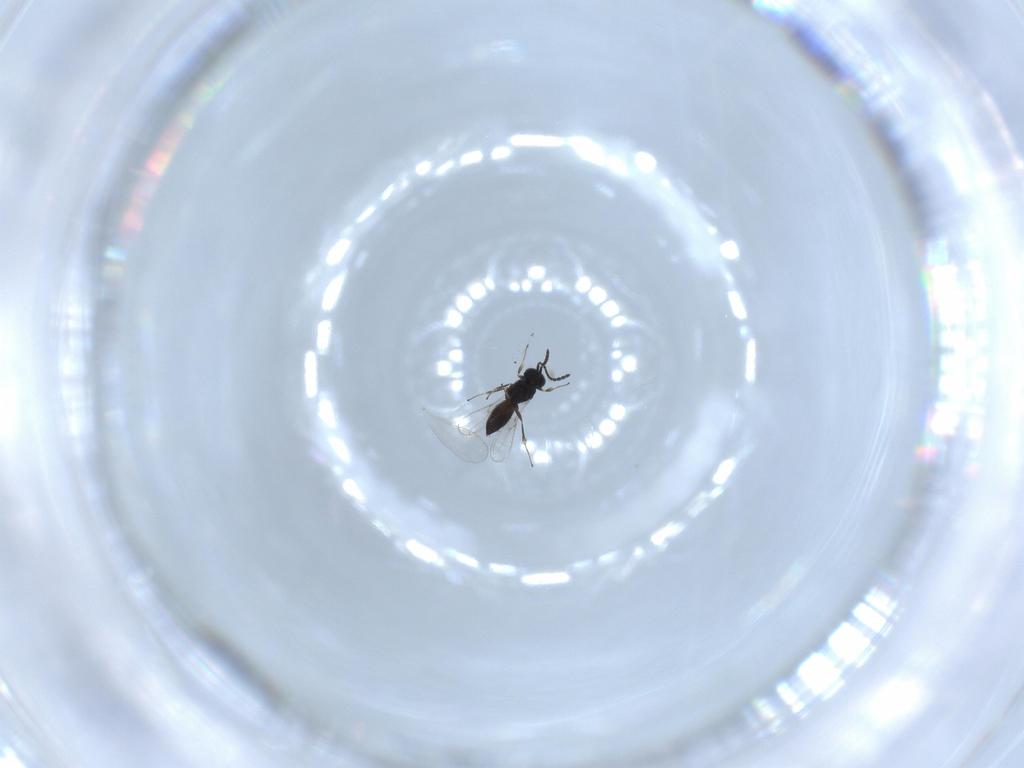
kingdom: Animalia
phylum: Arthropoda
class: Insecta
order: Hymenoptera
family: Scelionidae
